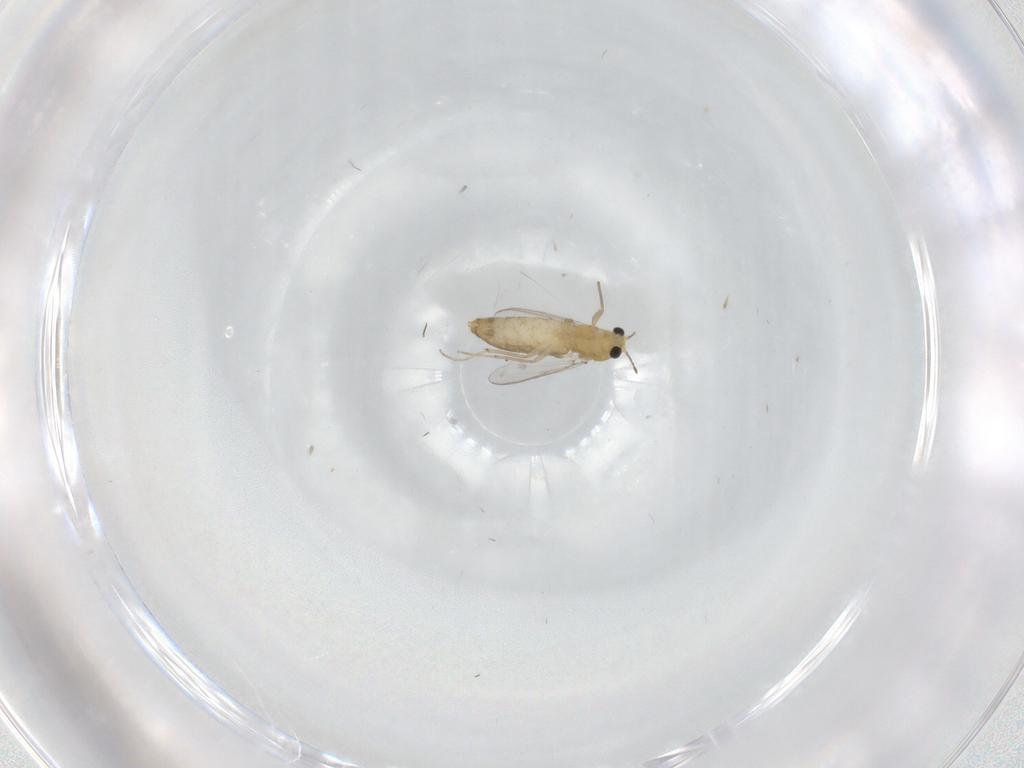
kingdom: Animalia
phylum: Arthropoda
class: Insecta
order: Diptera
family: Chironomidae
